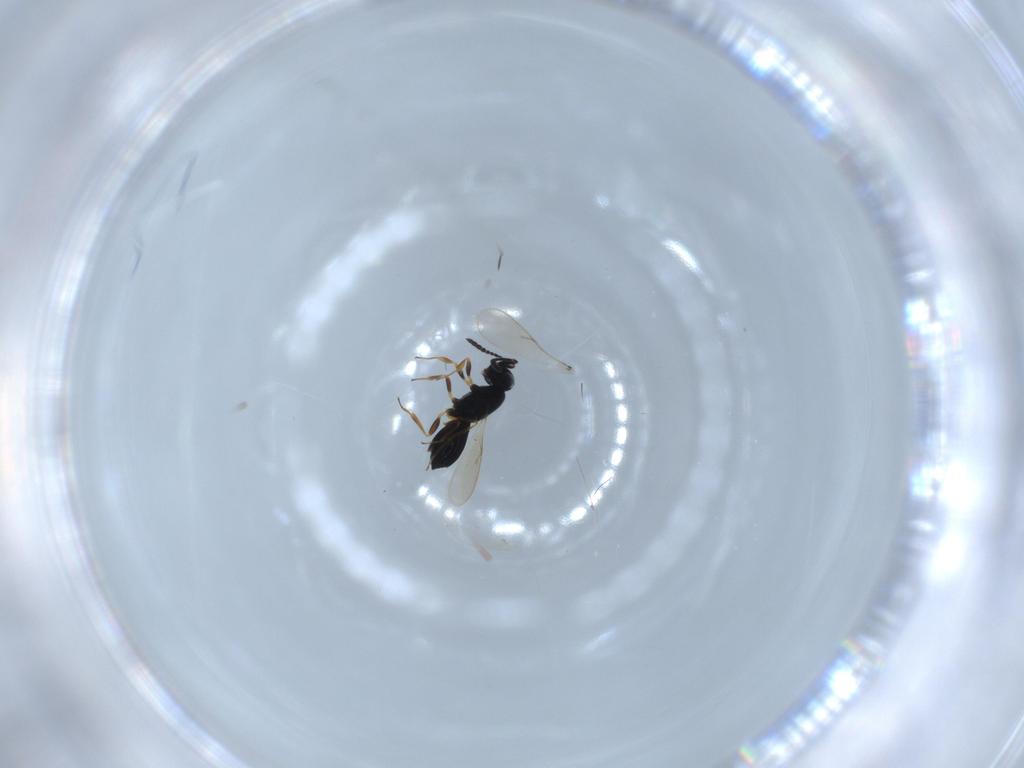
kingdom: Animalia
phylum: Arthropoda
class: Insecta
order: Hymenoptera
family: Scelionidae
